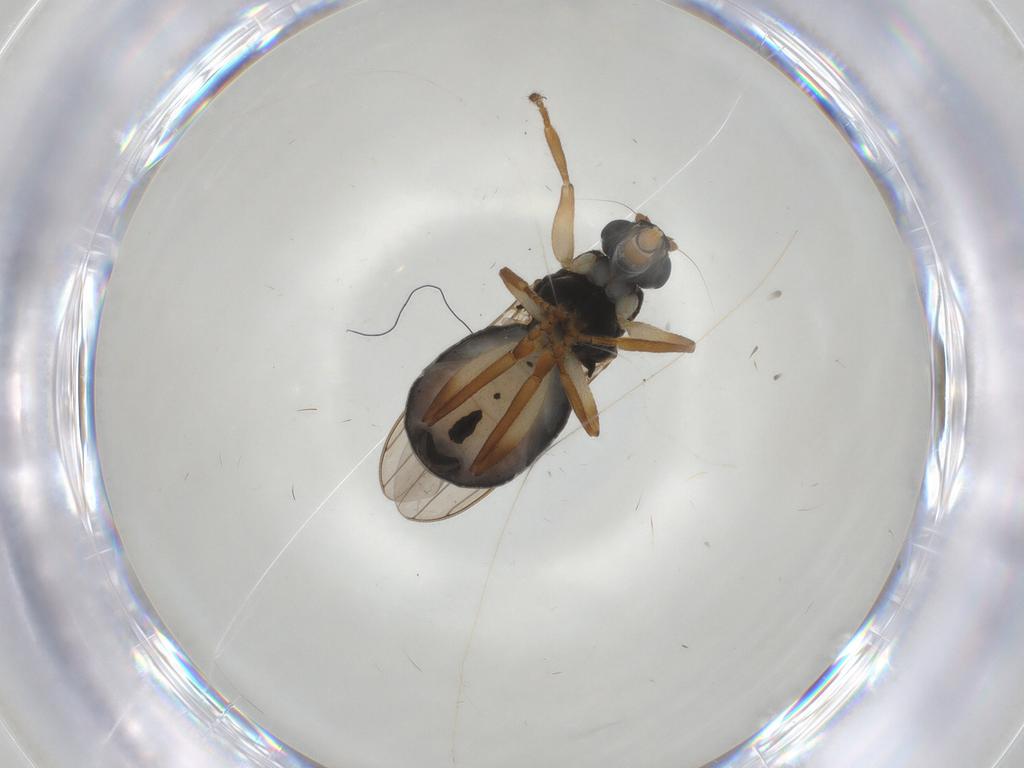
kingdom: Animalia
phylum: Arthropoda
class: Insecta
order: Diptera
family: Sphaeroceridae
